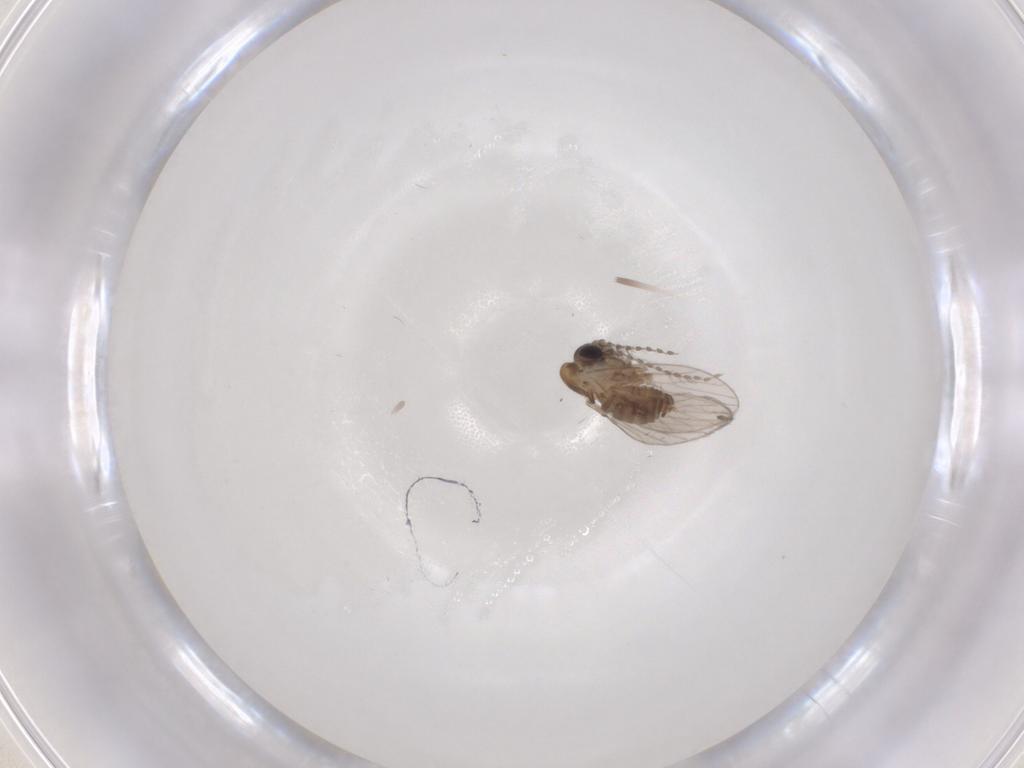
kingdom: Animalia
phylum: Arthropoda
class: Insecta
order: Diptera
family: Psychodidae
